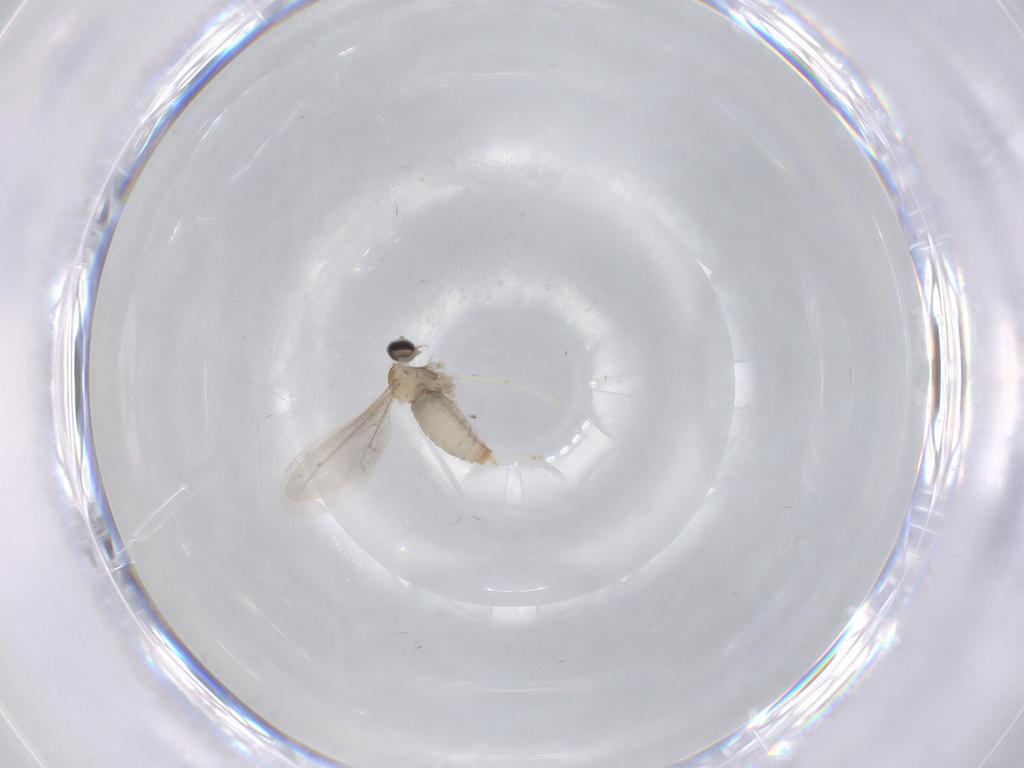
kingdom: Animalia
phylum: Arthropoda
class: Insecta
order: Diptera
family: Cecidomyiidae
